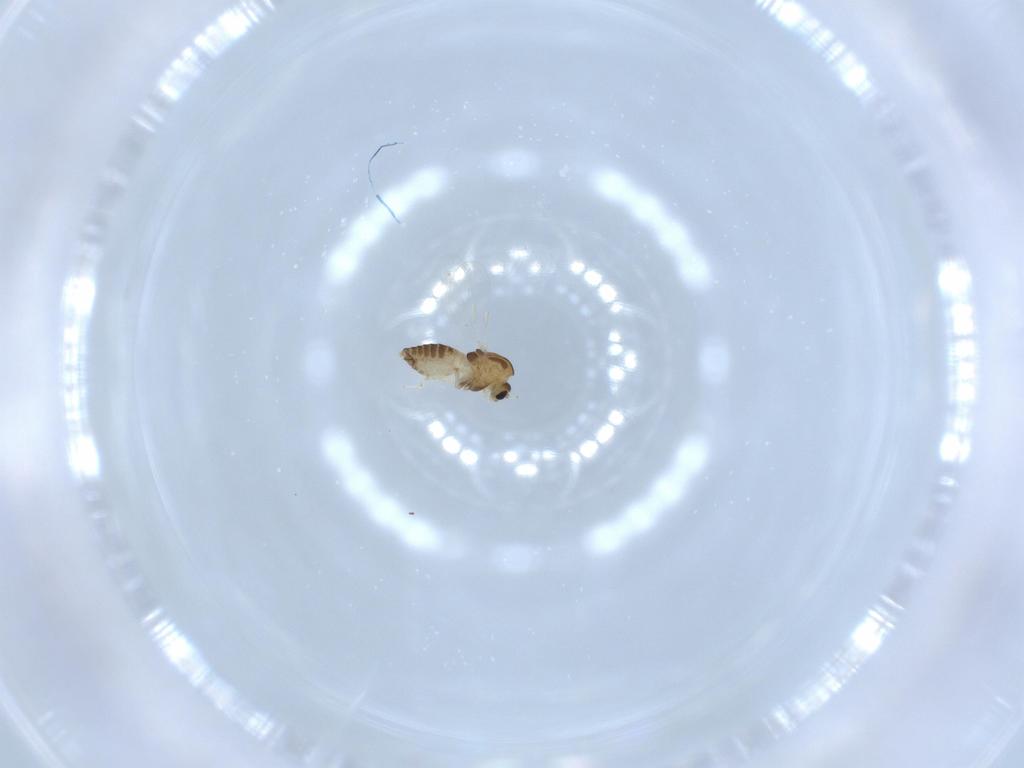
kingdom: Animalia
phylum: Arthropoda
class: Insecta
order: Diptera
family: Chironomidae
